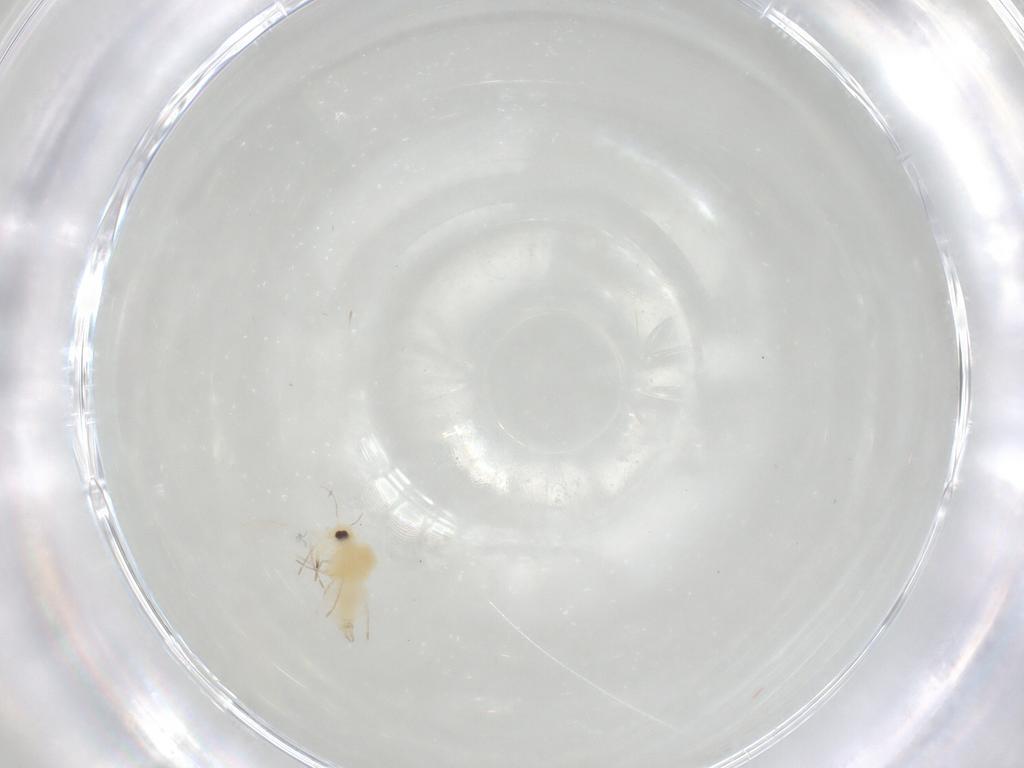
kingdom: Animalia
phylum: Arthropoda
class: Insecta
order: Hemiptera
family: Aleyrodidae
